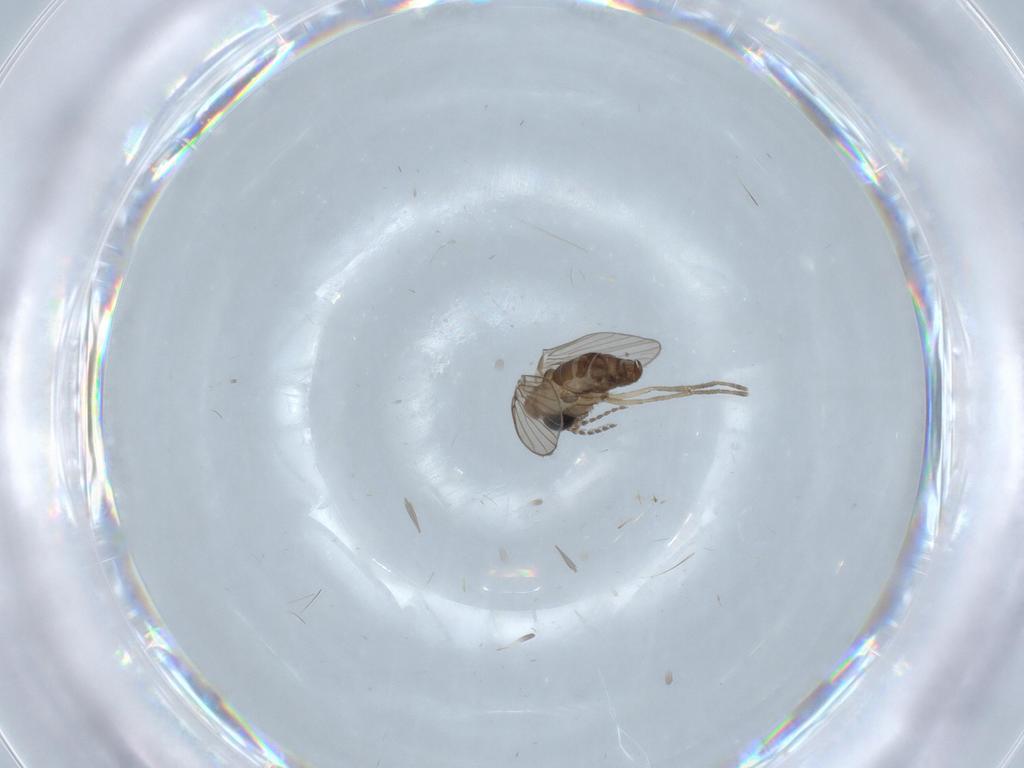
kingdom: Animalia
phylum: Arthropoda
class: Insecta
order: Diptera
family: Psychodidae
